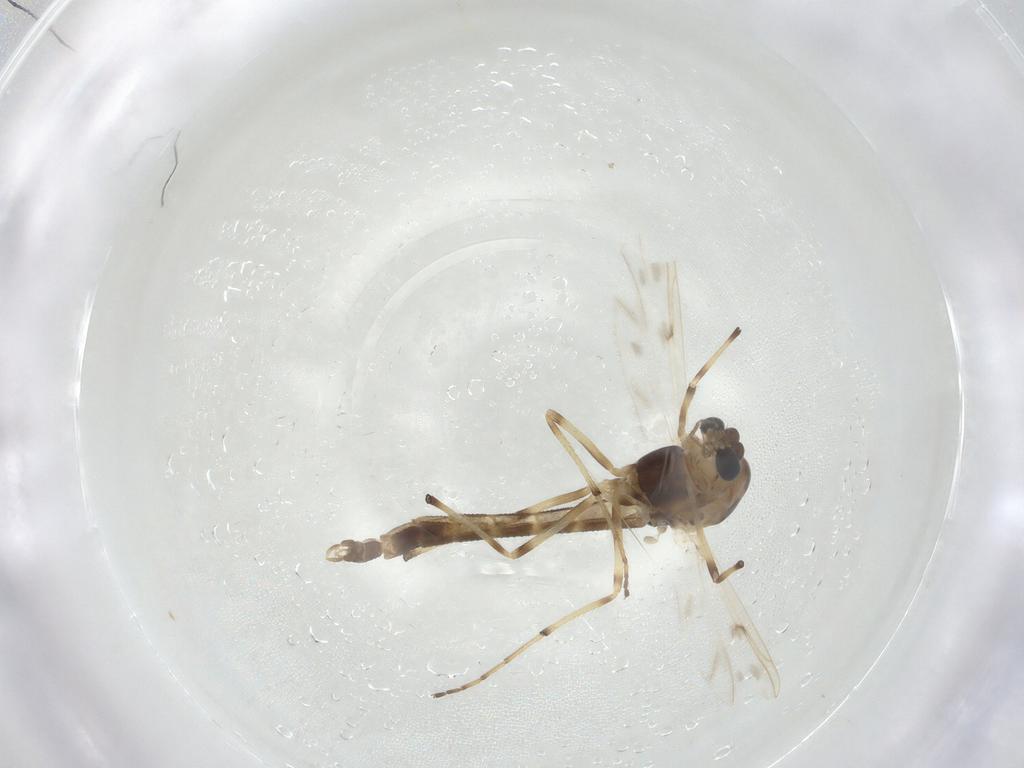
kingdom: Animalia
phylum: Arthropoda
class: Insecta
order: Diptera
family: Chironomidae
